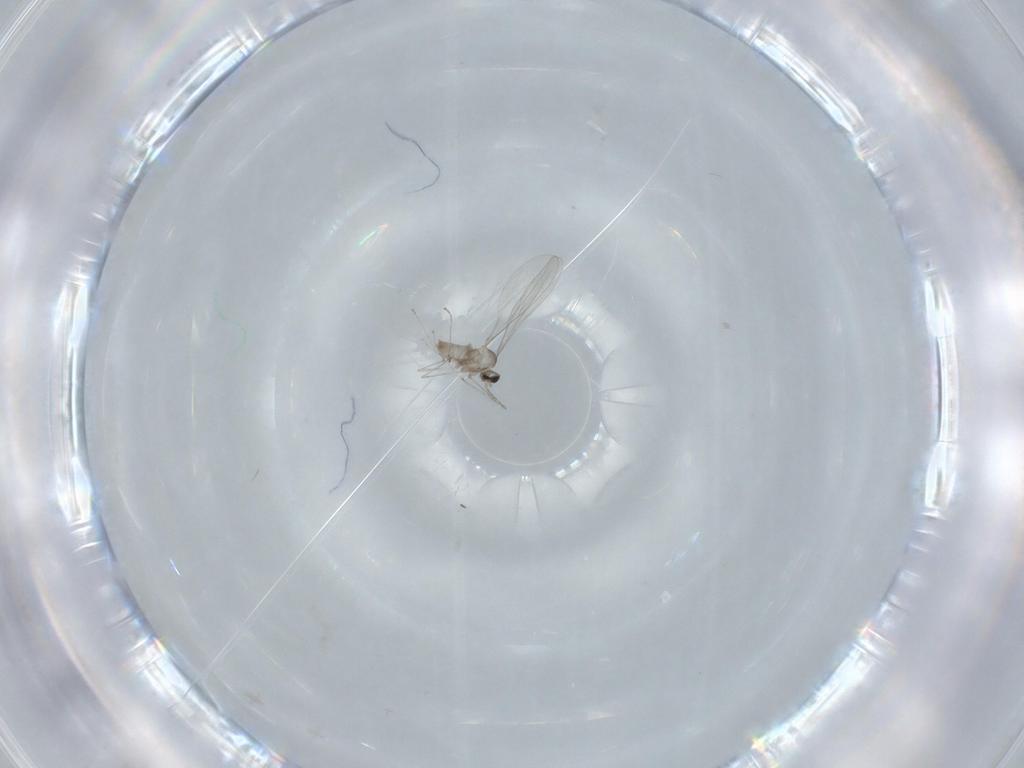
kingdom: Animalia
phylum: Arthropoda
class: Insecta
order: Diptera
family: Cecidomyiidae
